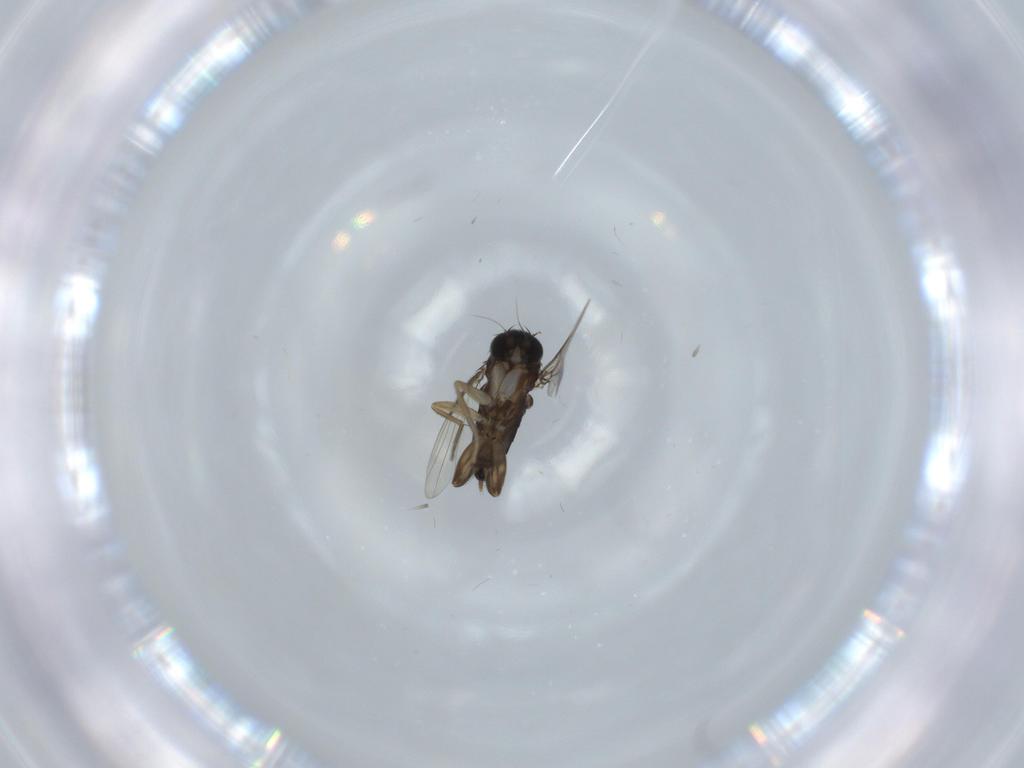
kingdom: Animalia
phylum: Arthropoda
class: Insecta
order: Diptera
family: Phoridae
